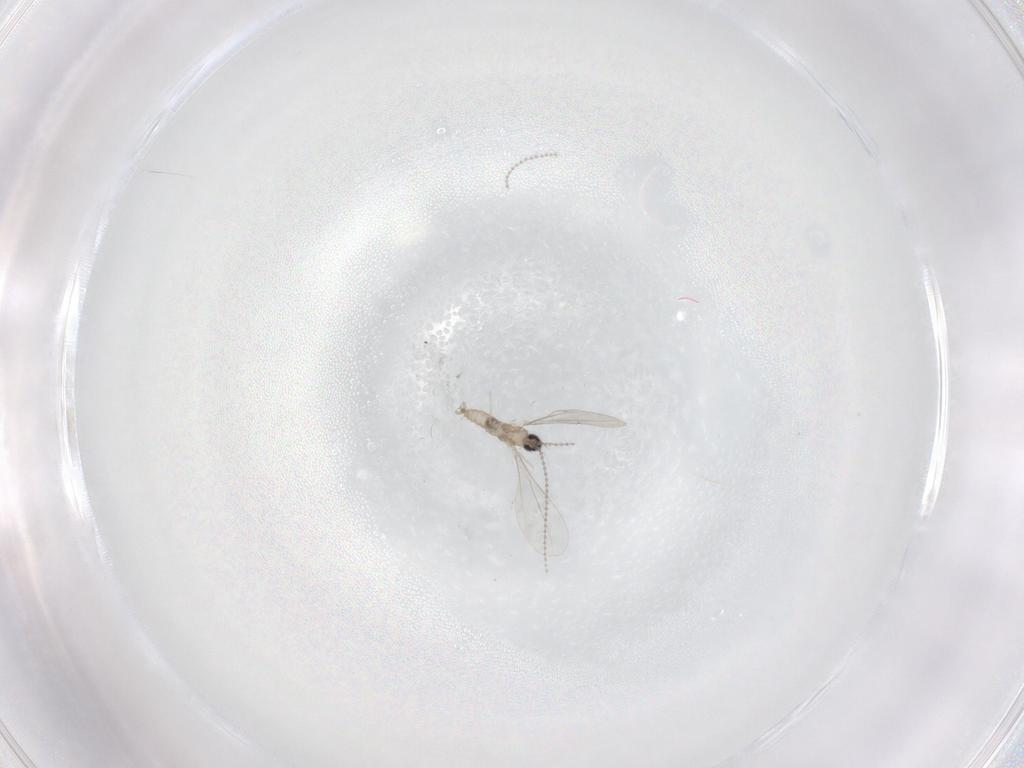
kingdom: Animalia
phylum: Arthropoda
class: Insecta
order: Diptera
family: Cecidomyiidae
